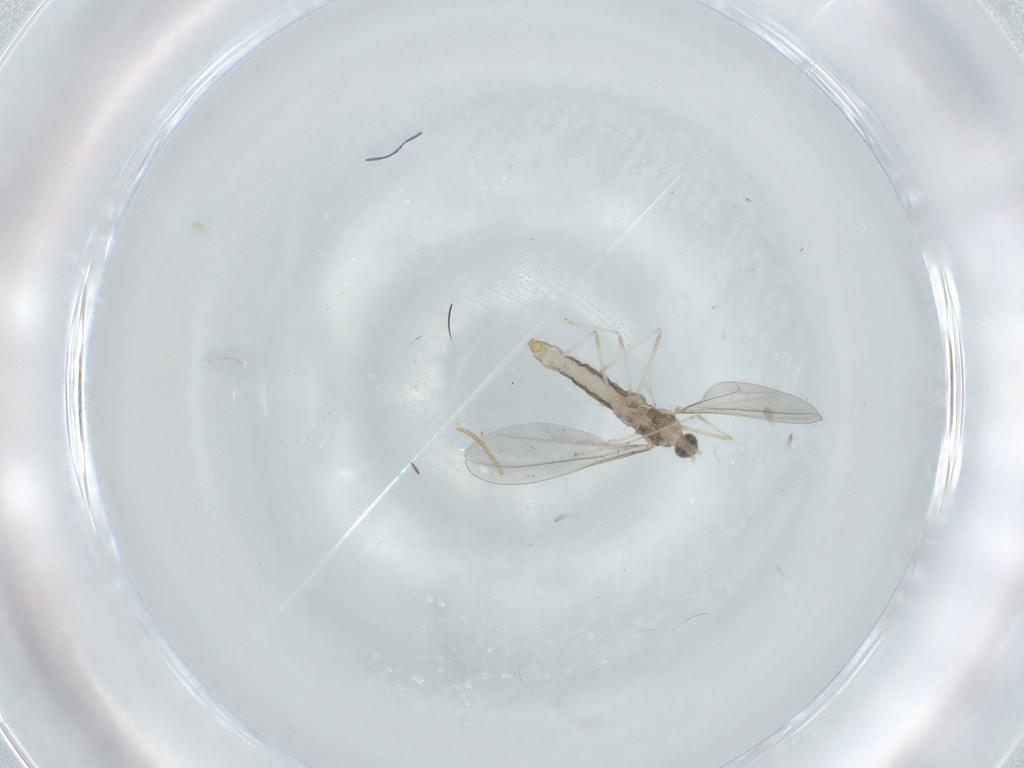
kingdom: Animalia
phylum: Arthropoda
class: Insecta
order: Diptera
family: Cecidomyiidae
